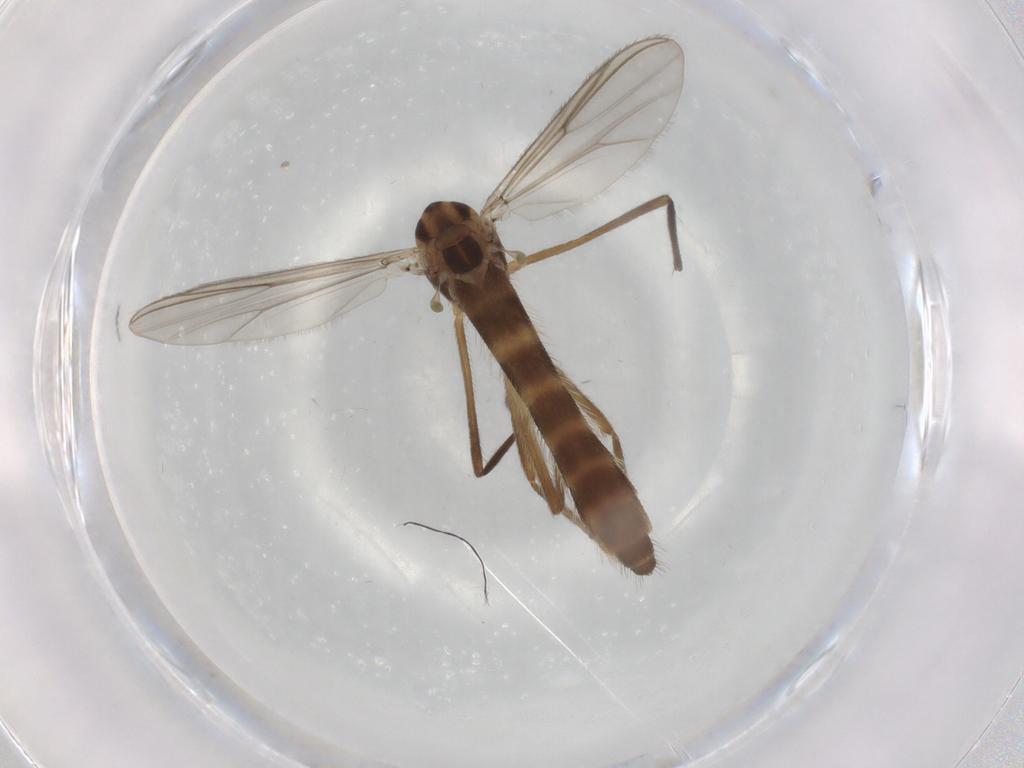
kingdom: Animalia
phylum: Arthropoda
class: Insecta
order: Diptera
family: Chironomidae
